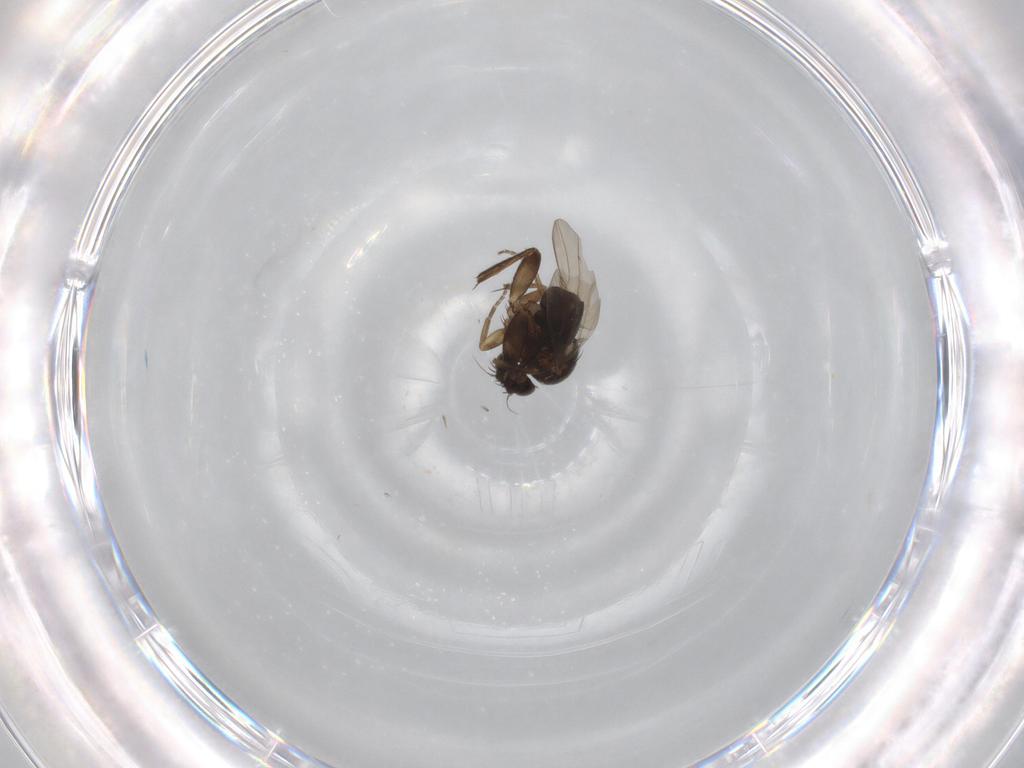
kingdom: Animalia
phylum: Arthropoda
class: Insecta
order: Diptera
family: Phoridae
